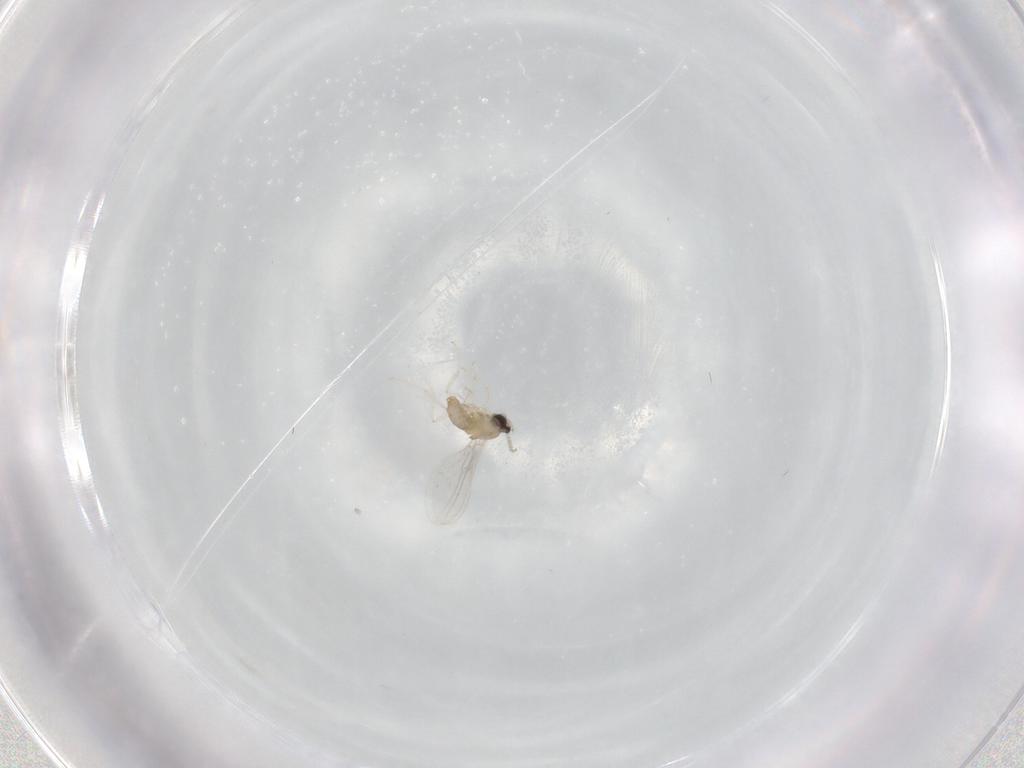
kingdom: Animalia
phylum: Arthropoda
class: Insecta
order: Diptera
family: Cecidomyiidae
